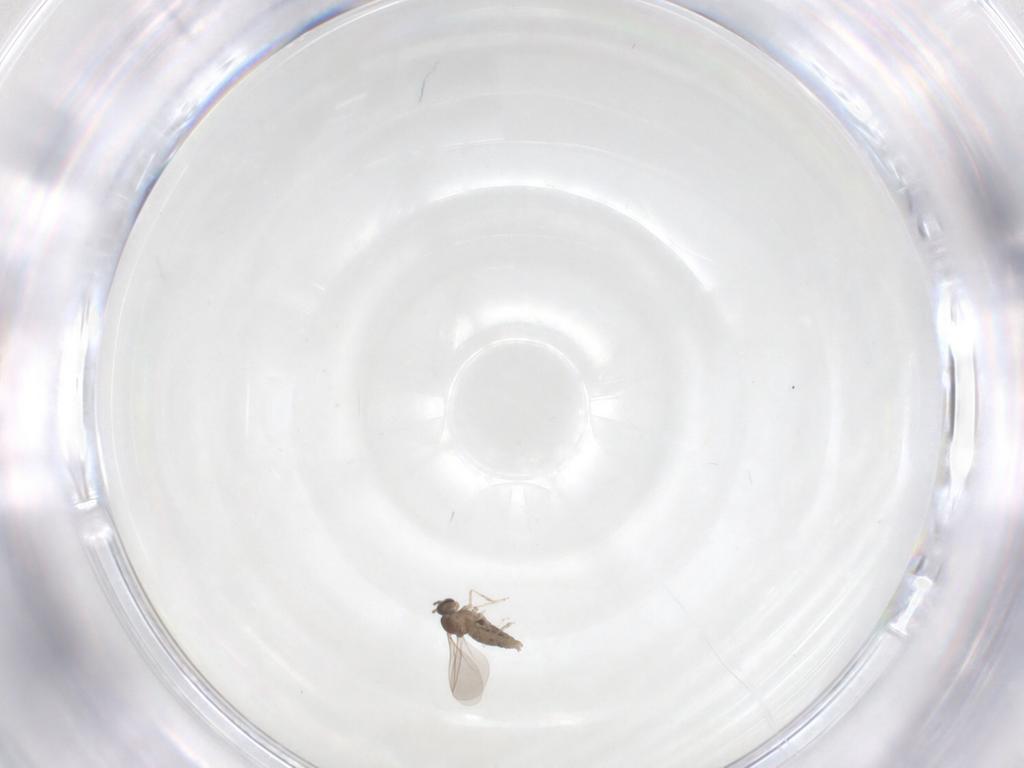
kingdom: Animalia
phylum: Arthropoda
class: Insecta
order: Diptera
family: Cecidomyiidae
